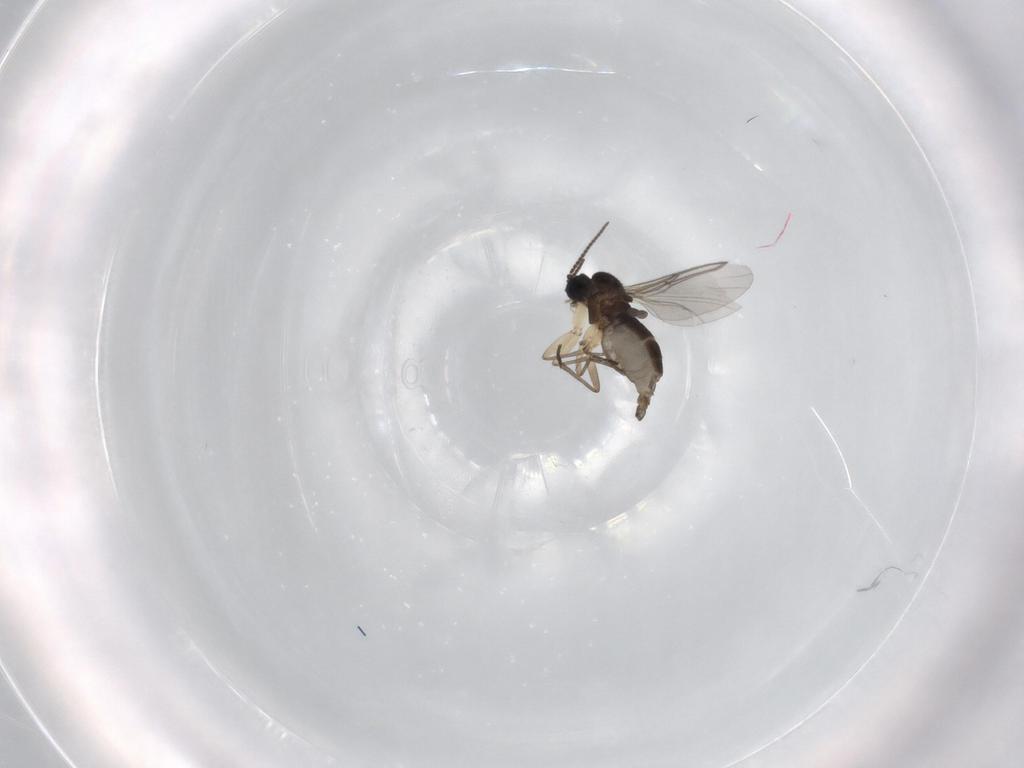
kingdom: Animalia
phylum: Arthropoda
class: Insecta
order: Diptera
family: Sciaridae
